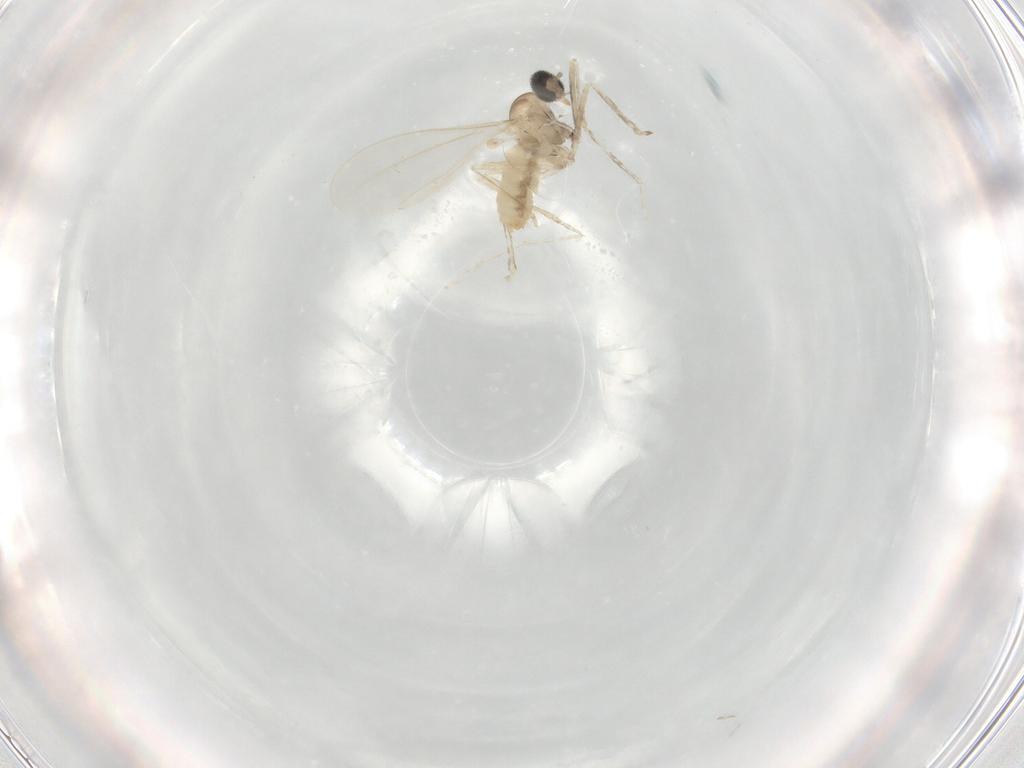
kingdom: Animalia
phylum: Arthropoda
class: Insecta
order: Diptera
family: Cecidomyiidae
